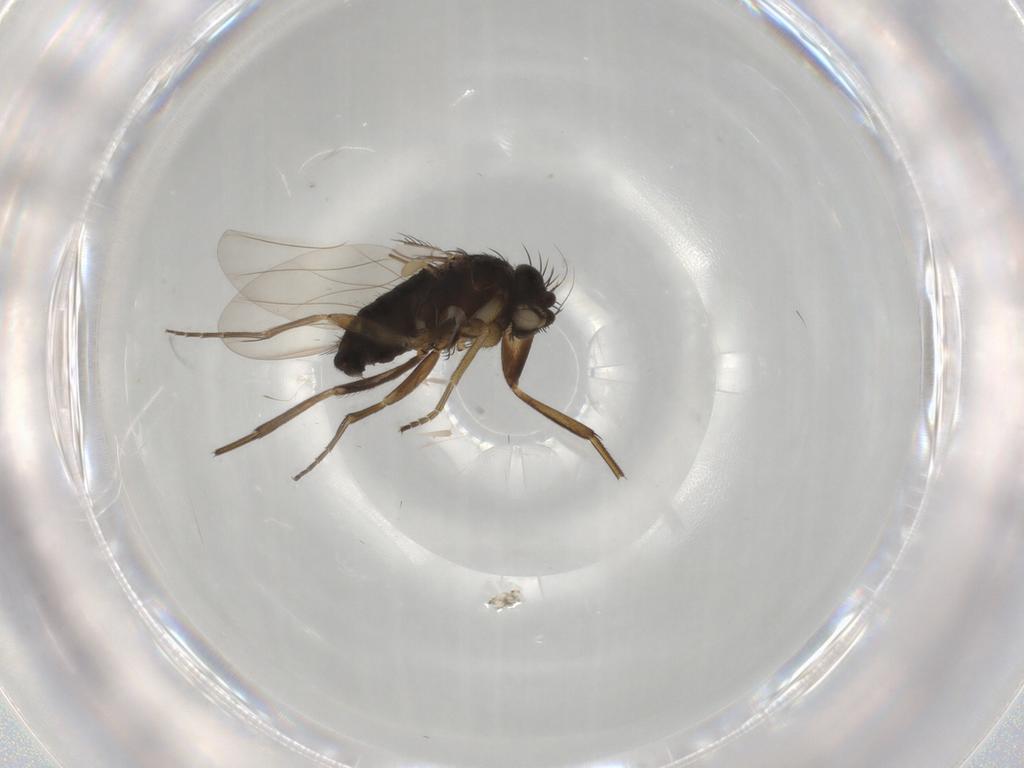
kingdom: Animalia
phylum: Arthropoda
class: Insecta
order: Diptera
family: Phoridae
